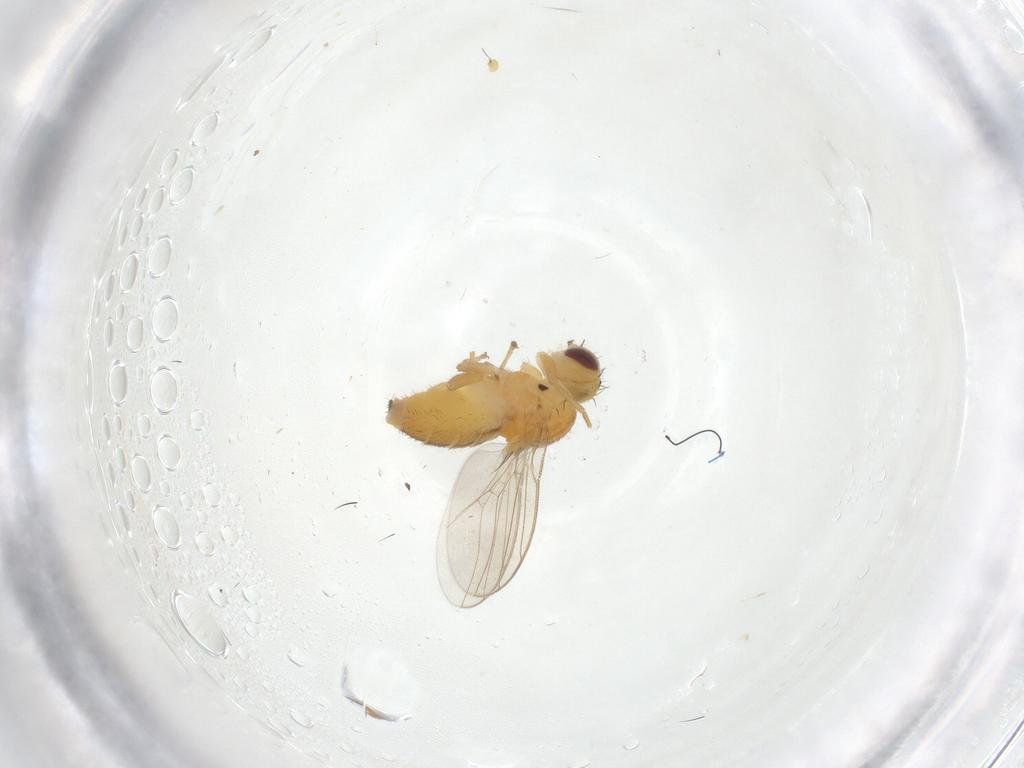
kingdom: Animalia
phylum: Arthropoda
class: Insecta
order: Diptera
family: Chloropidae
